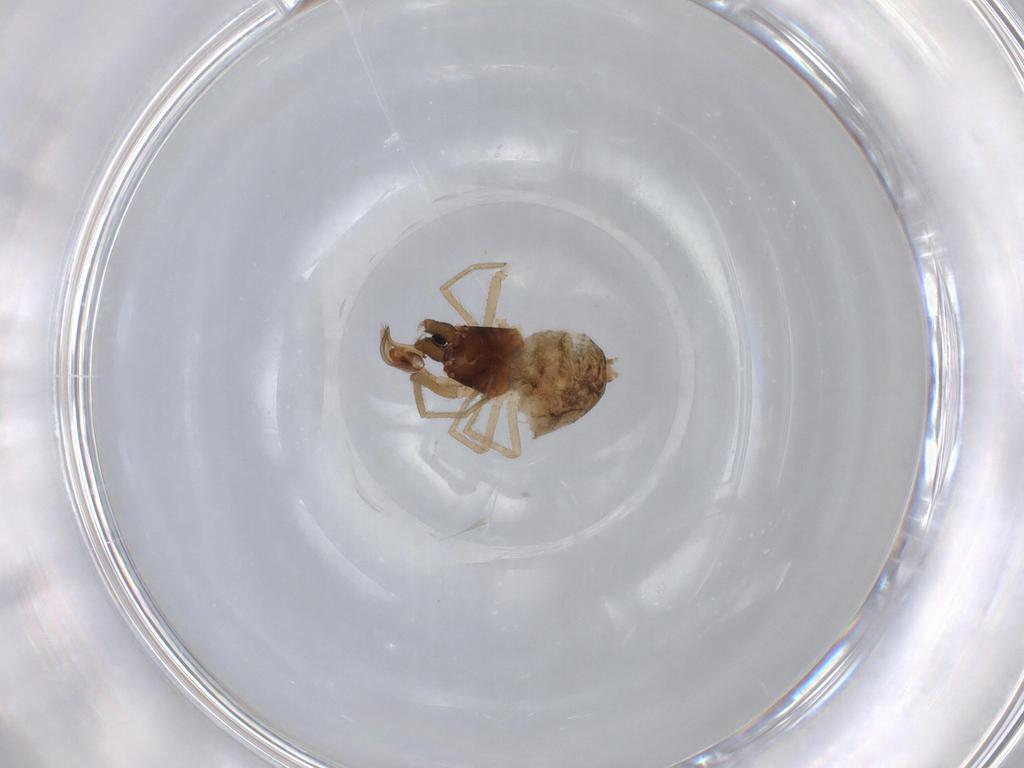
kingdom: Animalia
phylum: Arthropoda
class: Arachnida
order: Araneae
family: Dictynidae
